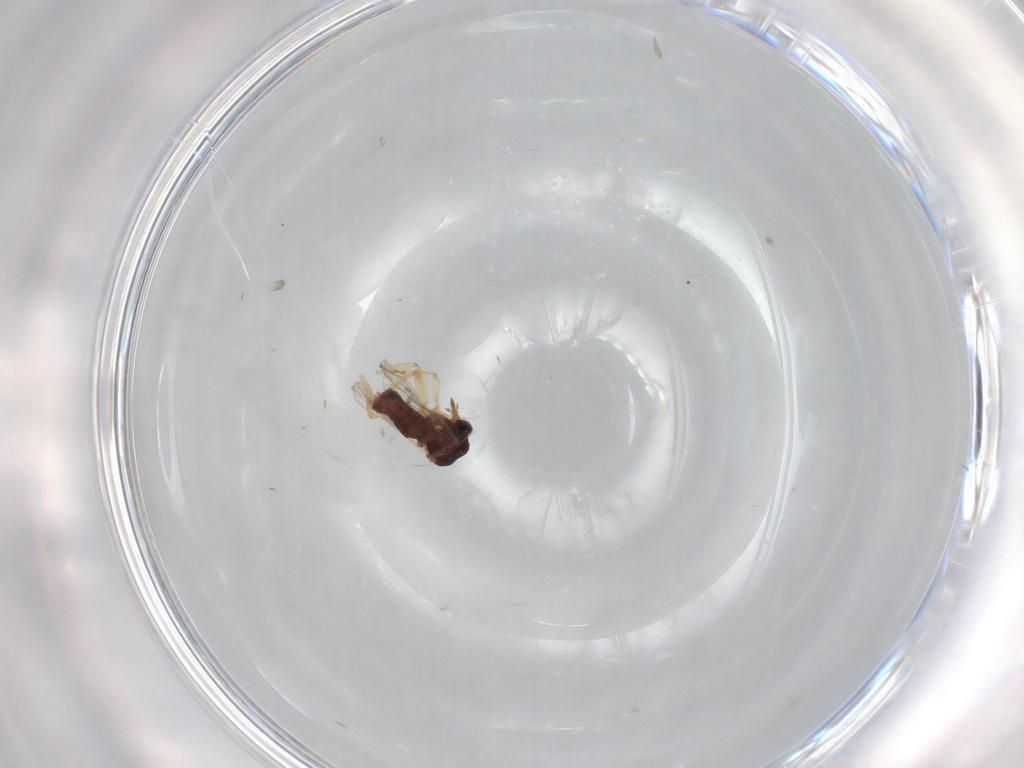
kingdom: Animalia
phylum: Arthropoda
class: Insecta
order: Diptera
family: Ceratopogonidae
